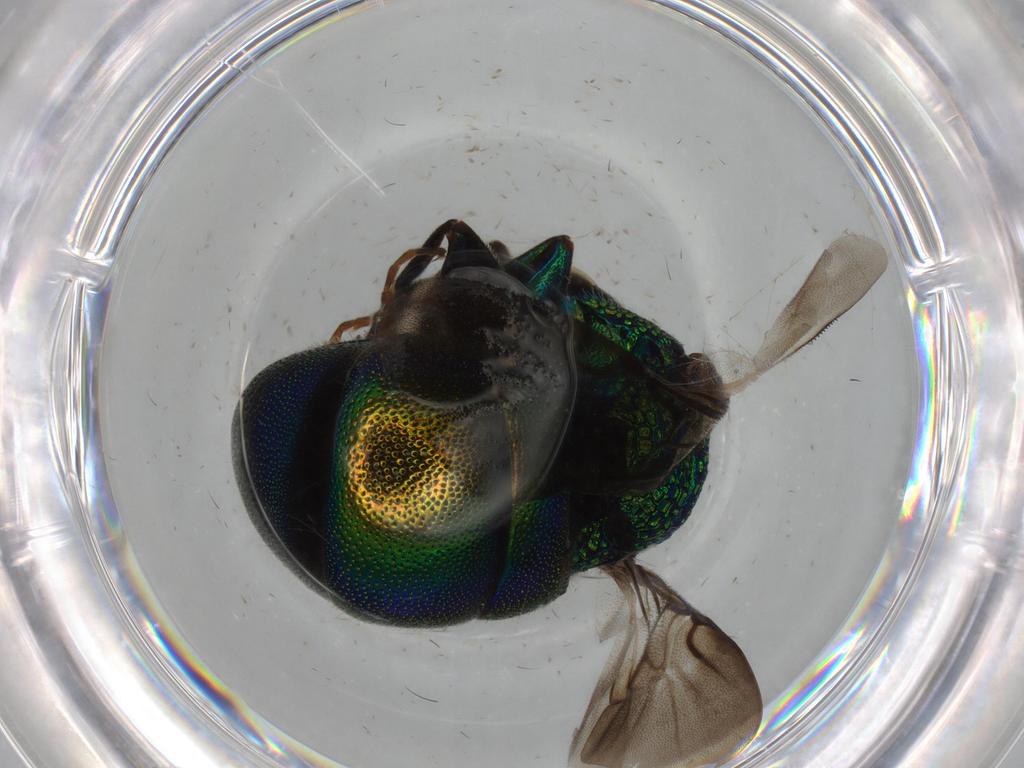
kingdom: Animalia
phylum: Arthropoda
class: Insecta
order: Hymenoptera
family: Chrysididae
